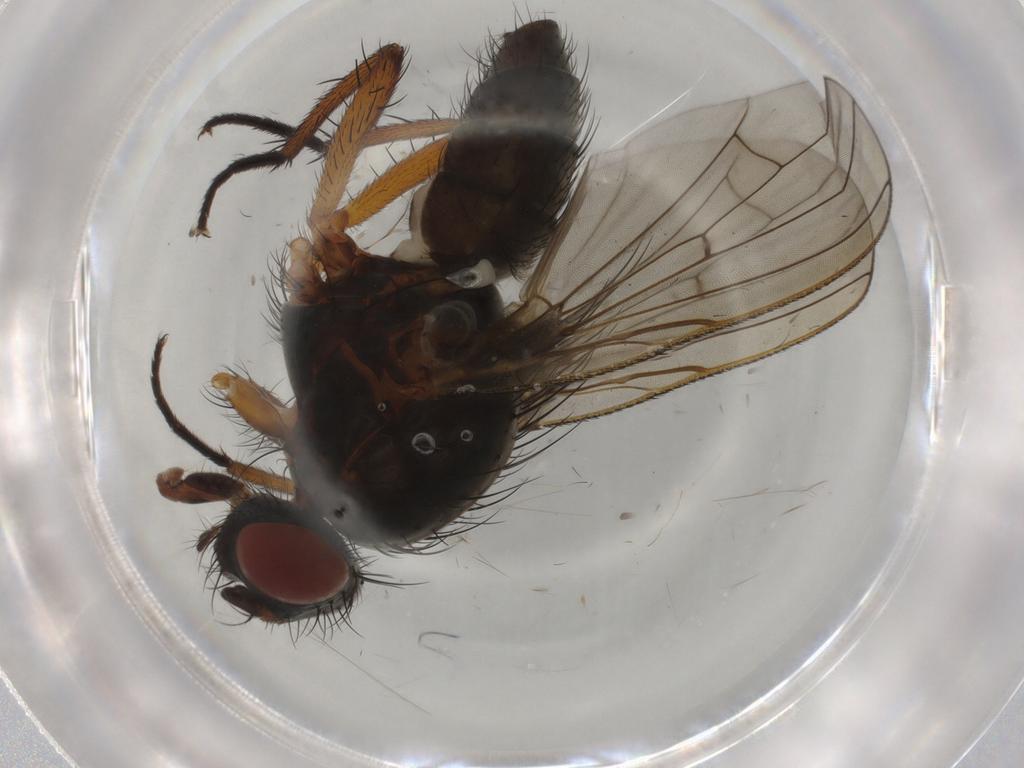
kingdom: Animalia
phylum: Arthropoda
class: Insecta
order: Diptera
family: Anthomyiidae
